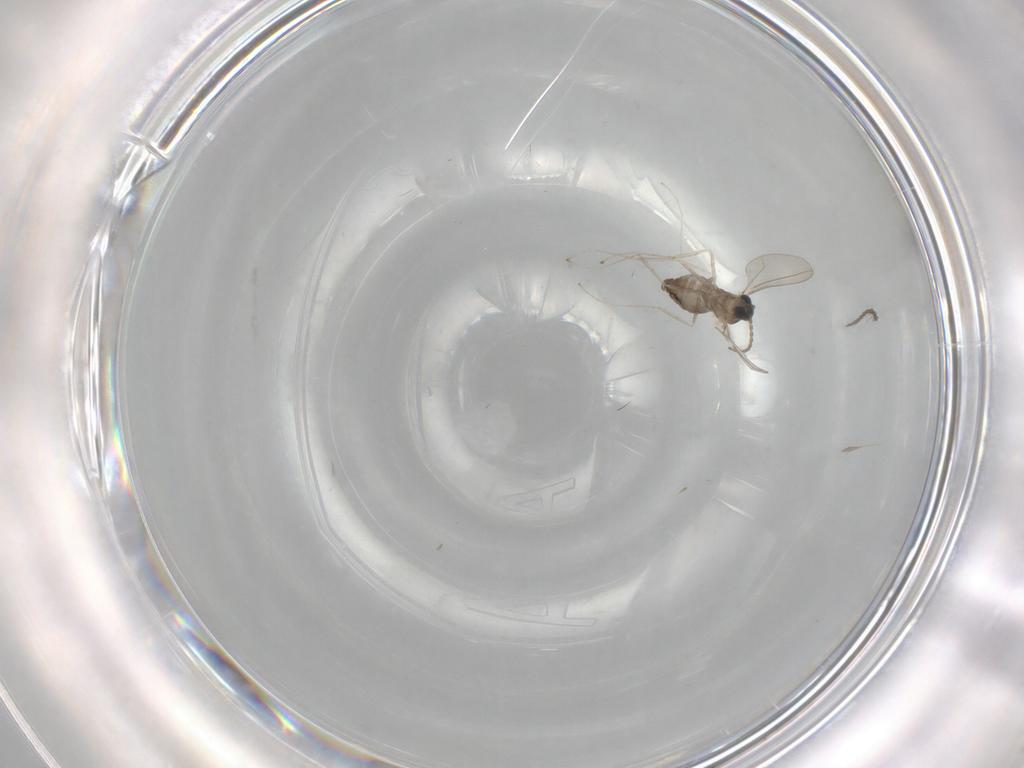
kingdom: Animalia
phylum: Arthropoda
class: Insecta
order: Diptera
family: Cecidomyiidae
